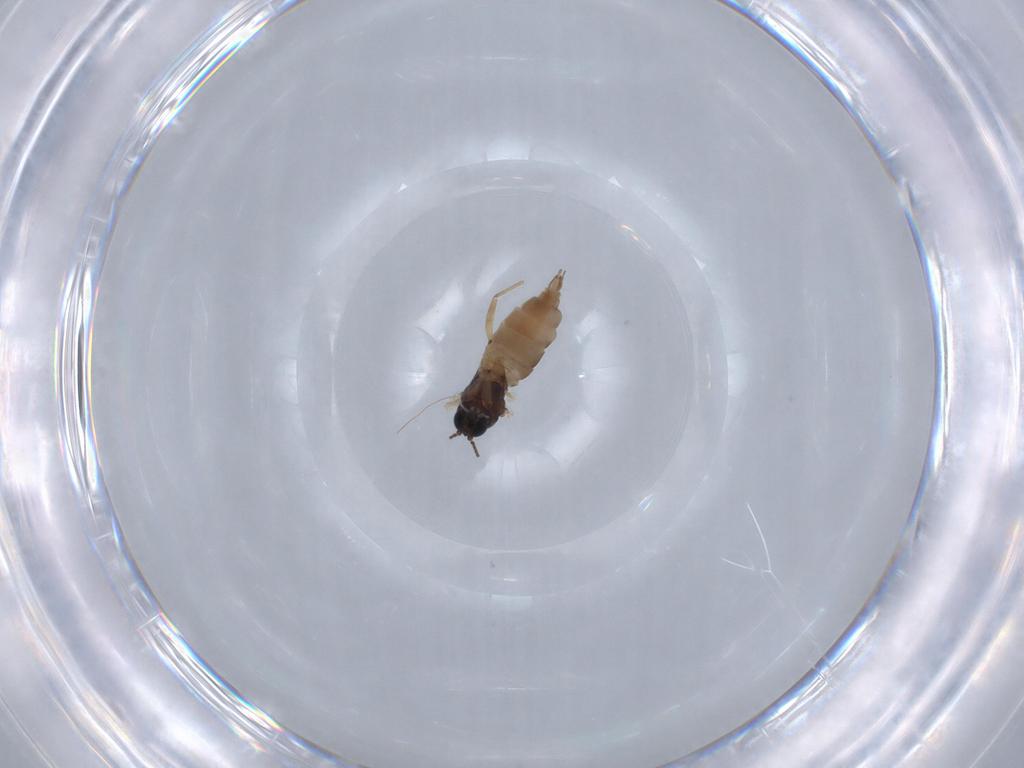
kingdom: Animalia
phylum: Arthropoda
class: Insecta
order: Diptera
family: Sciaridae
